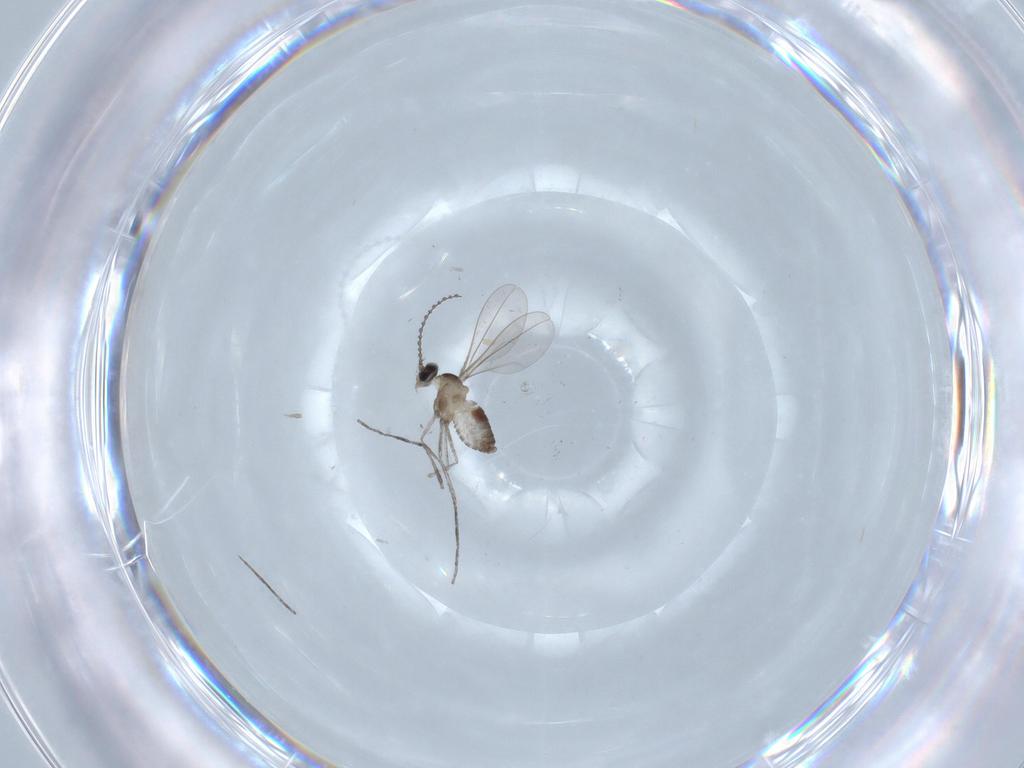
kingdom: Animalia
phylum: Arthropoda
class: Insecta
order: Diptera
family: Cecidomyiidae
